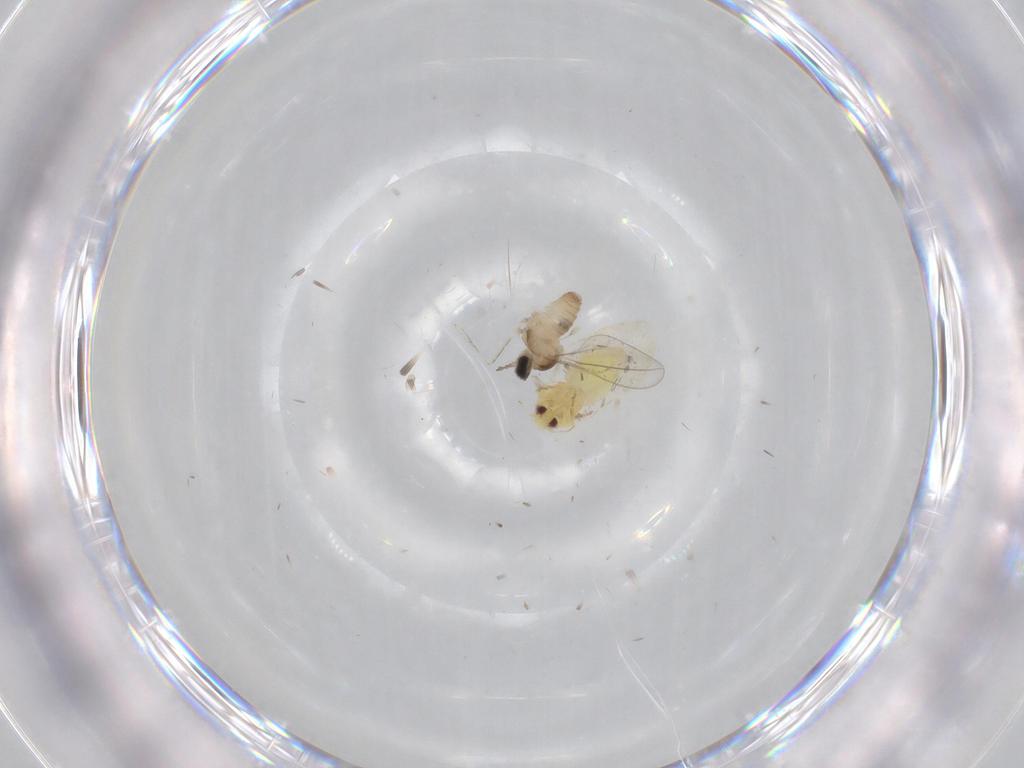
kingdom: Animalia
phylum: Arthropoda
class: Insecta
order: Diptera
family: Cecidomyiidae
